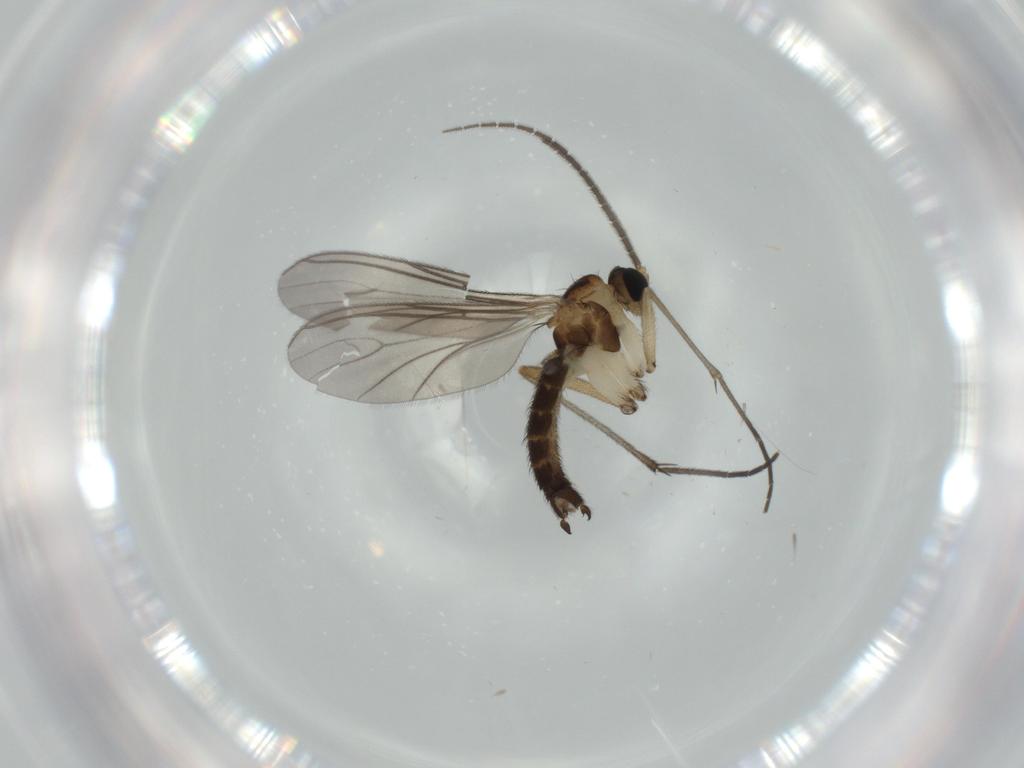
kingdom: Animalia
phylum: Arthropoda
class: Insecta
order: Diptera
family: Sciaridae
